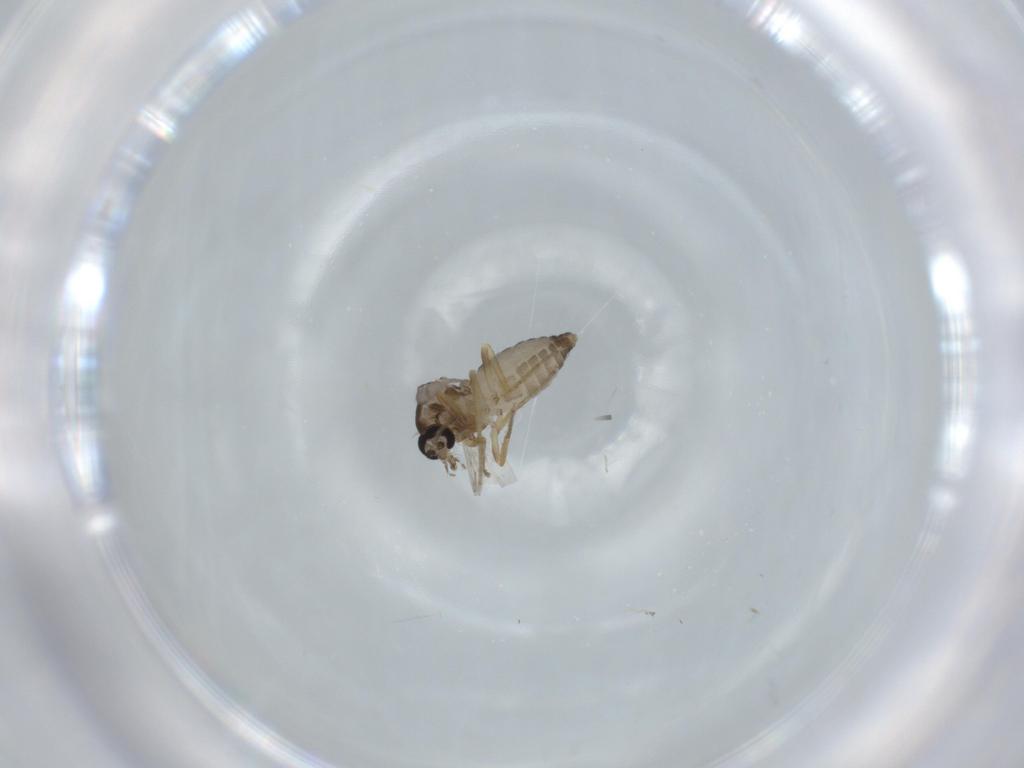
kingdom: Animalia
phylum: Arthropoda
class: Insecta
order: Diptera
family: Ceratopogonidae
